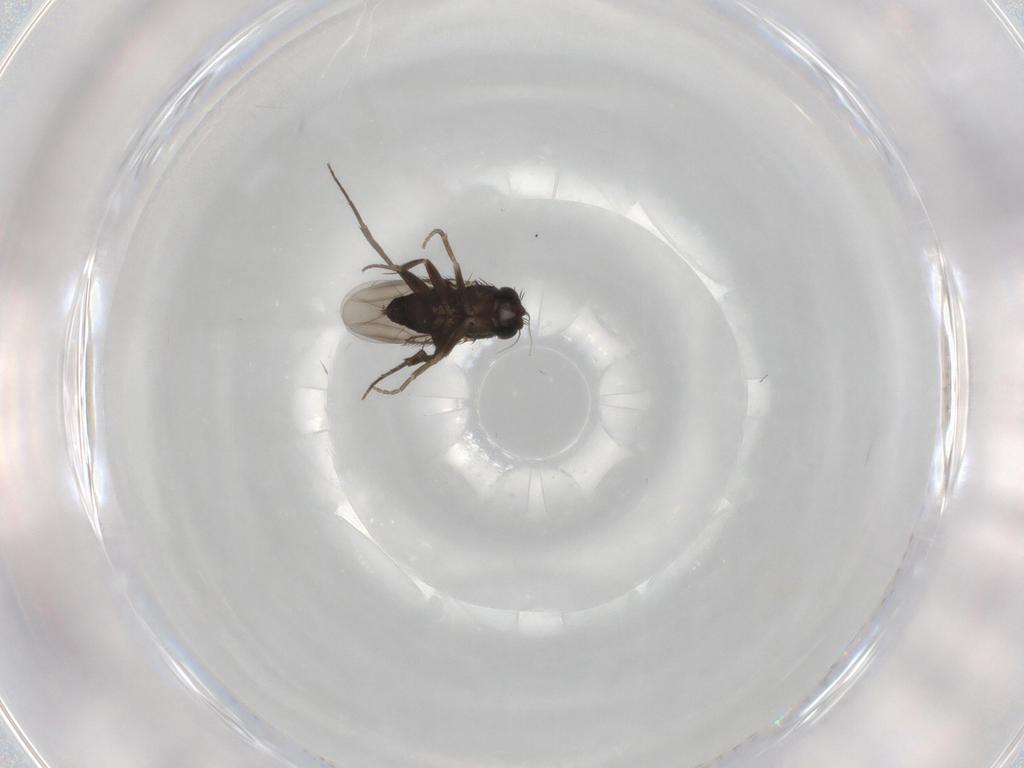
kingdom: Animalia
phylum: Arthropoda
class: Insecta
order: Diptera
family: Phoridae
